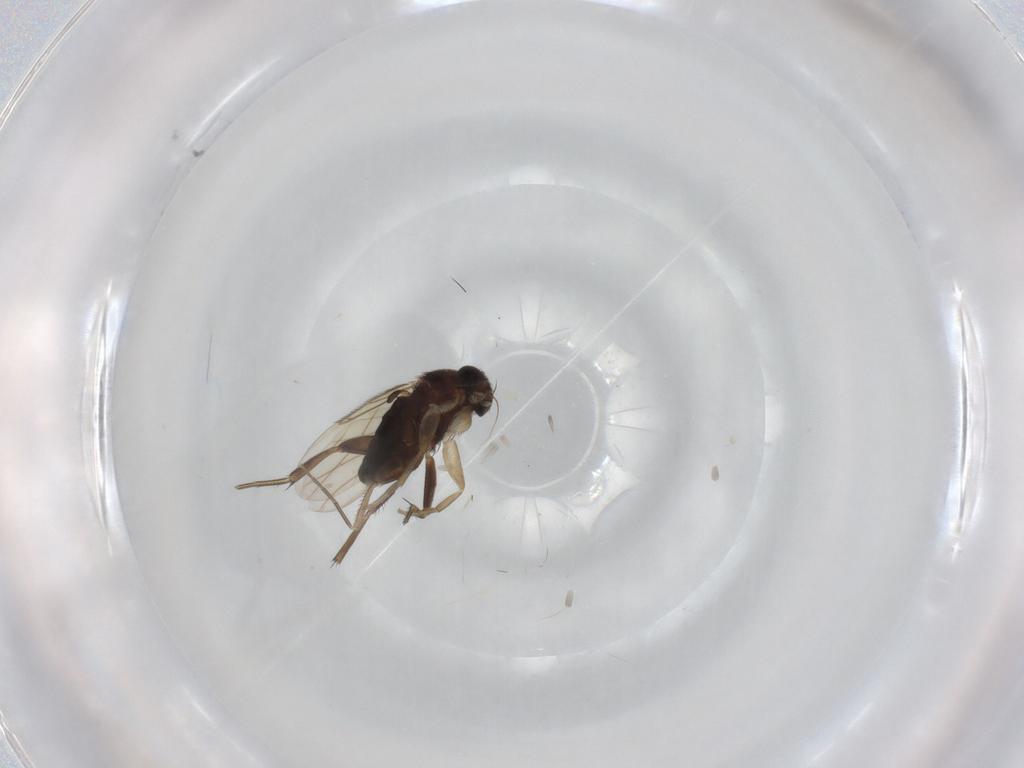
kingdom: Animalia
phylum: Arthropoda
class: Insecta
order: Diptera
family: Phoridae
